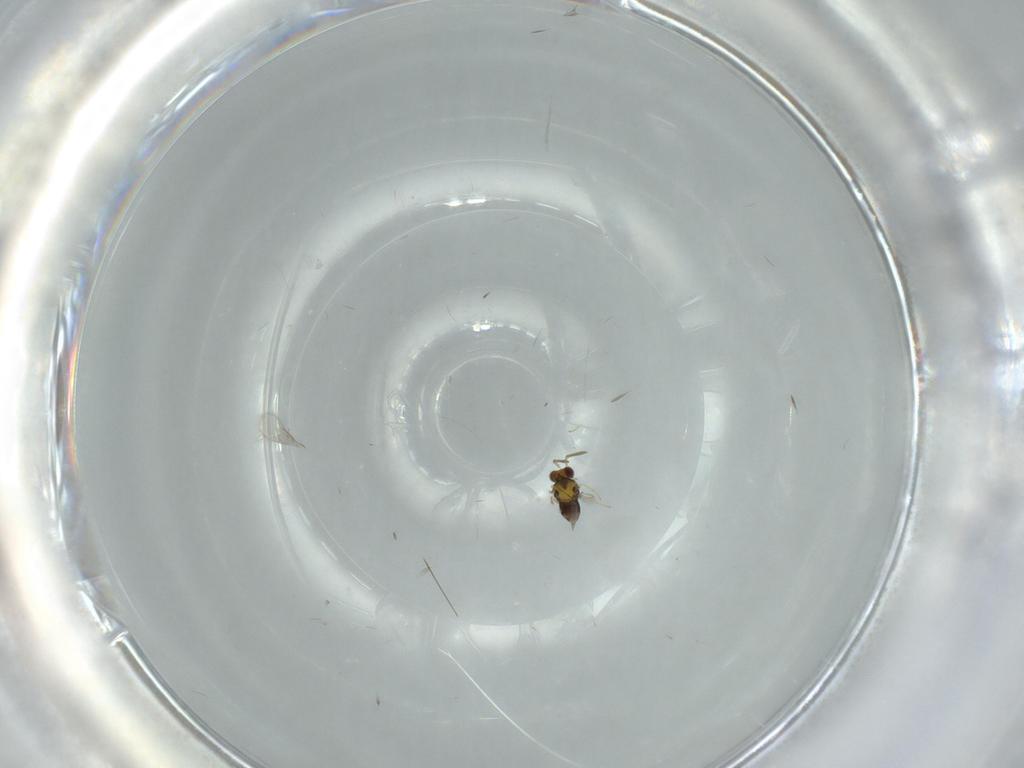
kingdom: Animalia
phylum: Arthropoda
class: Insecta
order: Hymenoptera
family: Aphelinidae
